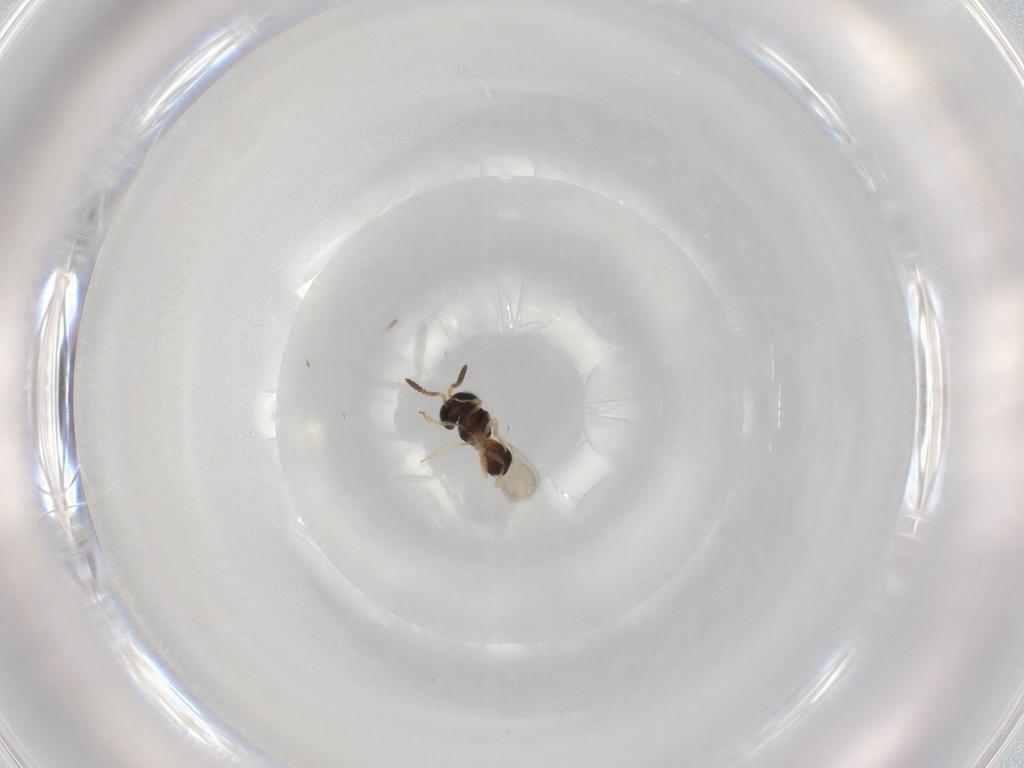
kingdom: Animalia
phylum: Arthropoda
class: Insecta
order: Hymenoptera
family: Scelionidae
